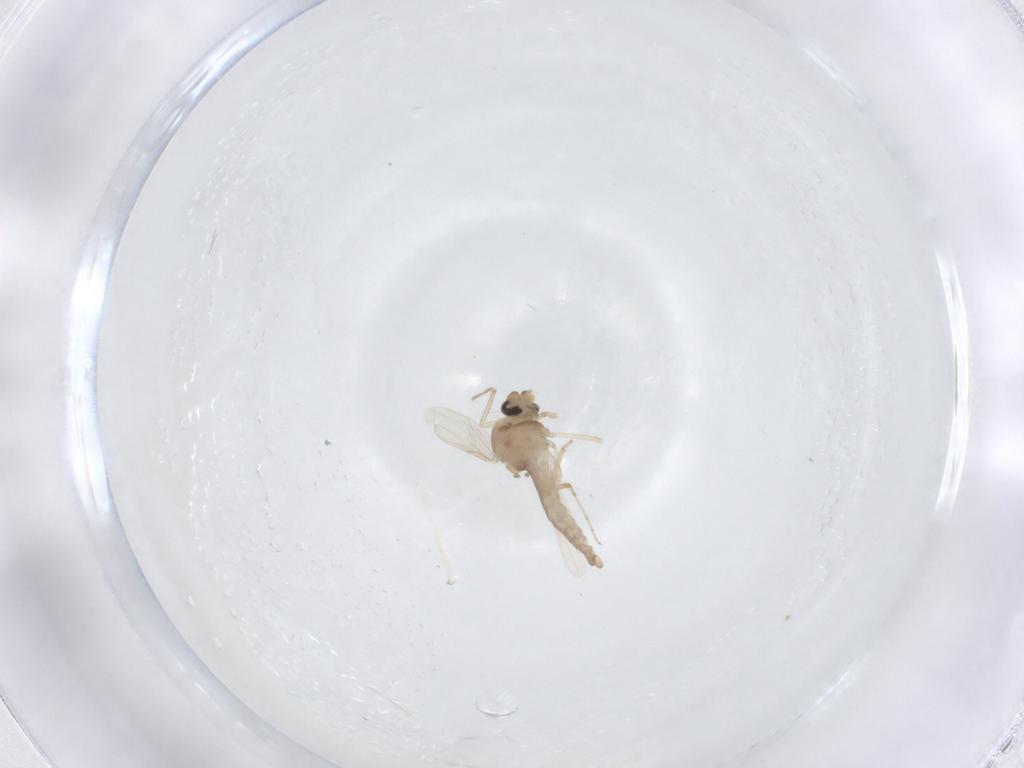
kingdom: Animalia
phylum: Arthropoda
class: Insecta
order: Diptera
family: Ceratopogonidae
